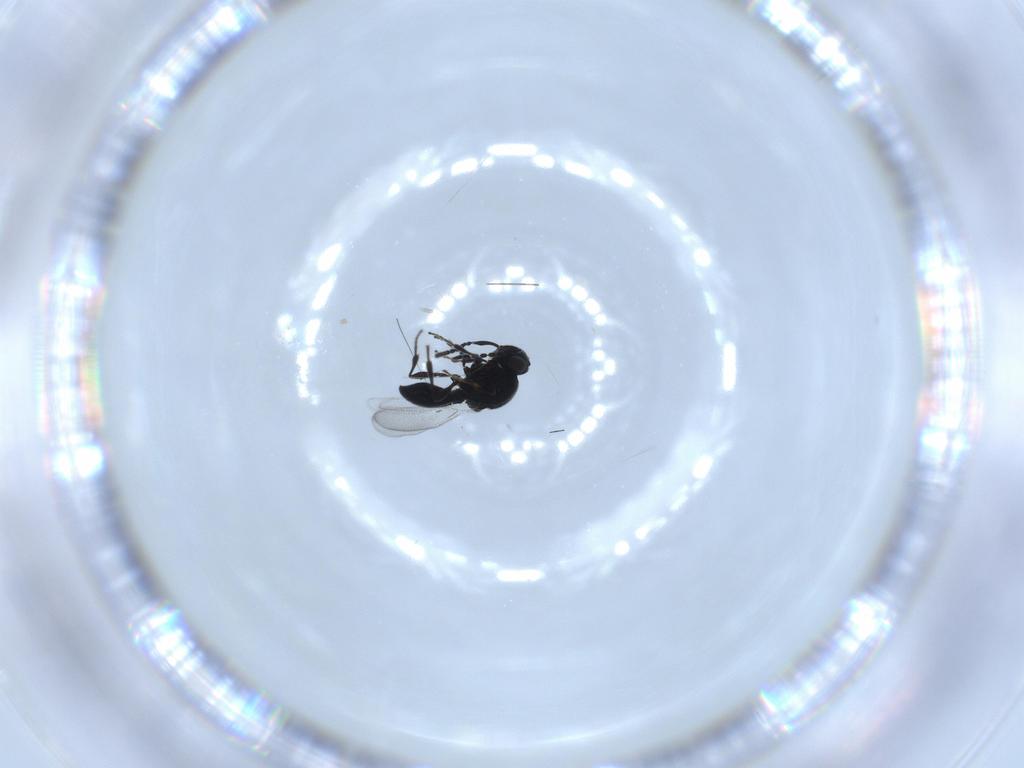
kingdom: Animalia
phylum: Arthropoda
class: Insecta
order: Diptera
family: Mythicomyiidae
